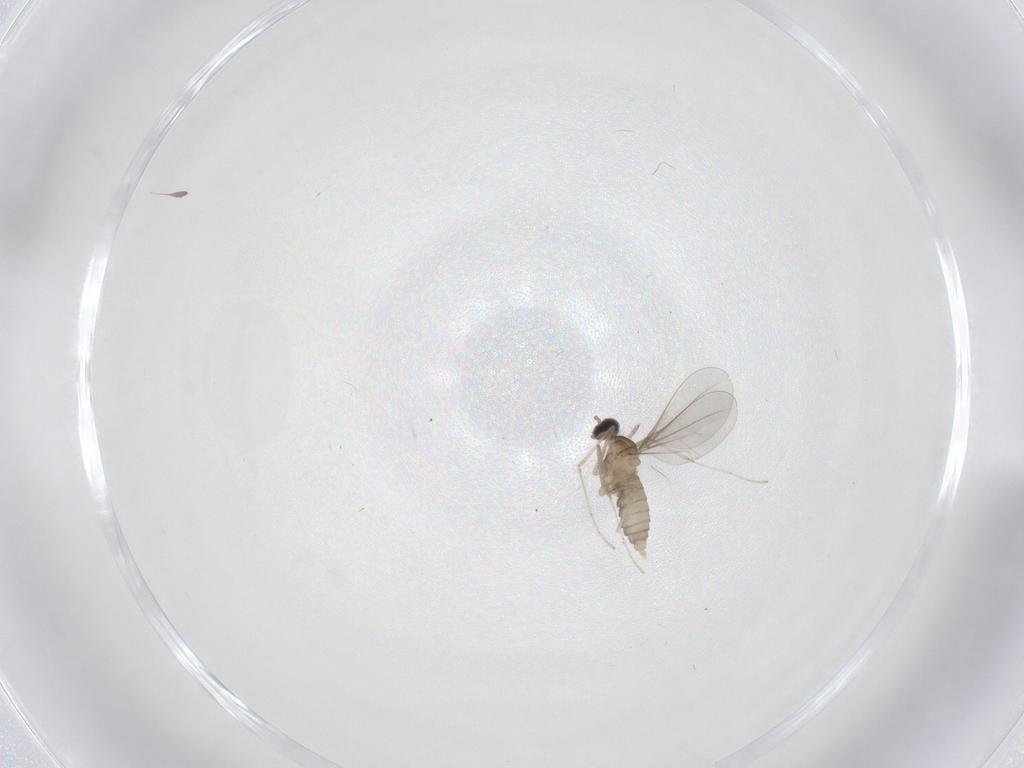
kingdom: Animalia
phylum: Arthropoda
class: Insecta
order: Diptera
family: Cecidomyiidae
